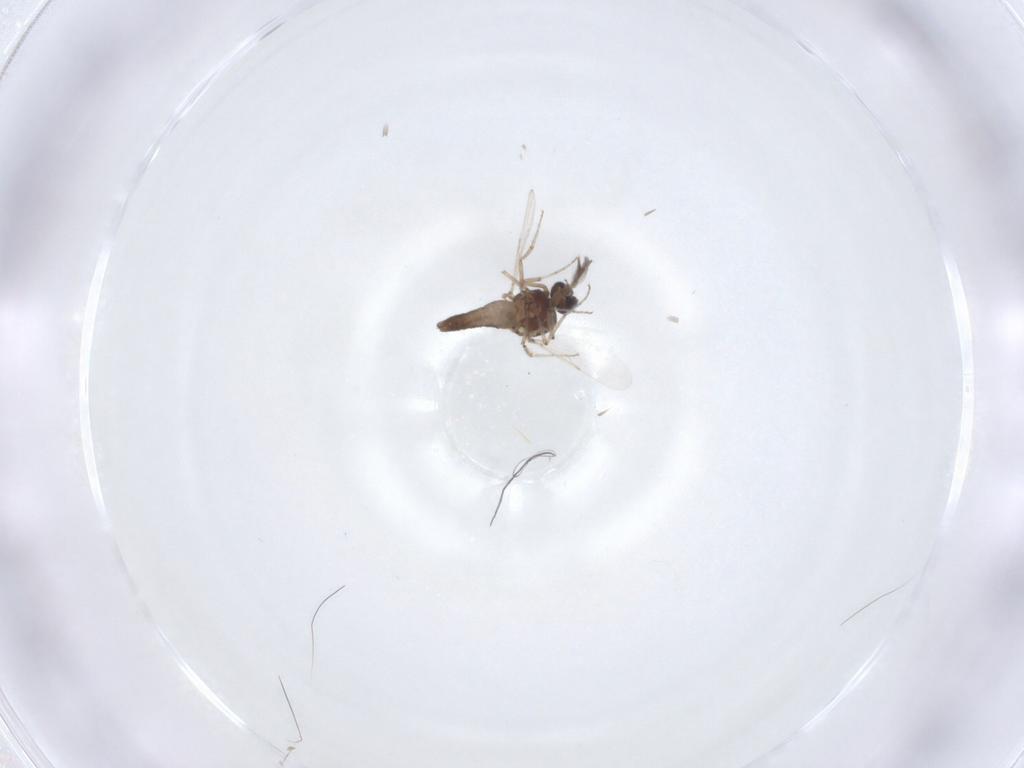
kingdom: Animalia
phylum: Arthropoda
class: Insecta
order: Diptera
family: Ceratopogonidae
